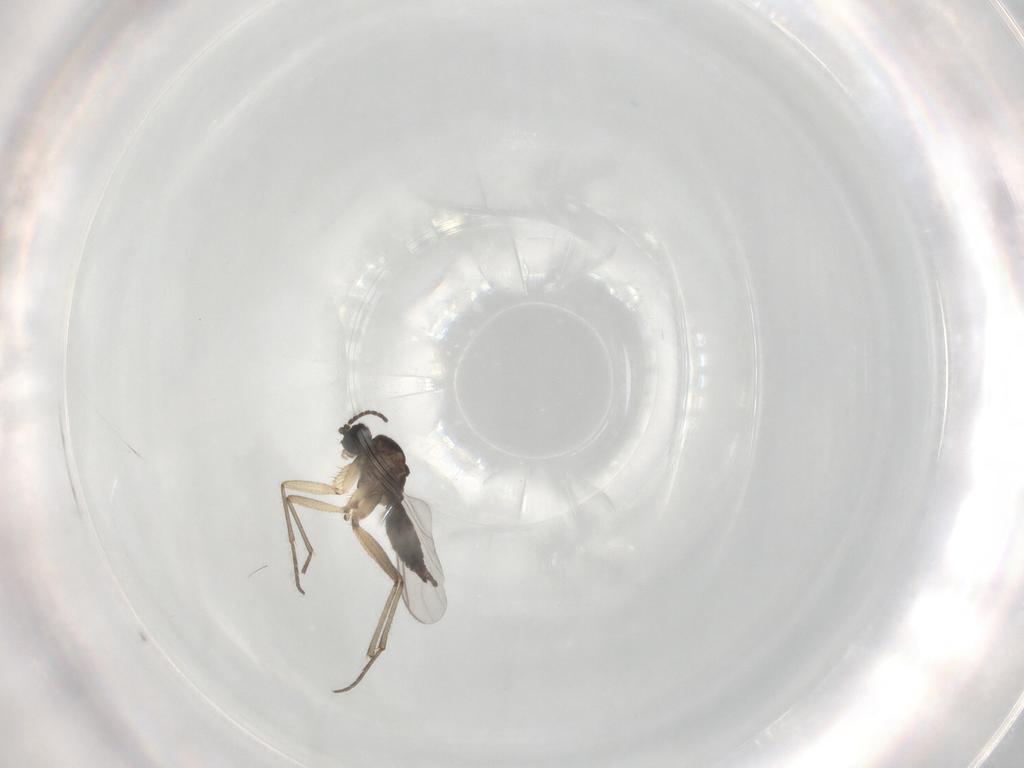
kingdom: Animalia
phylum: Arthropoda
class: Insecta
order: Diptera
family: Sciaridae
